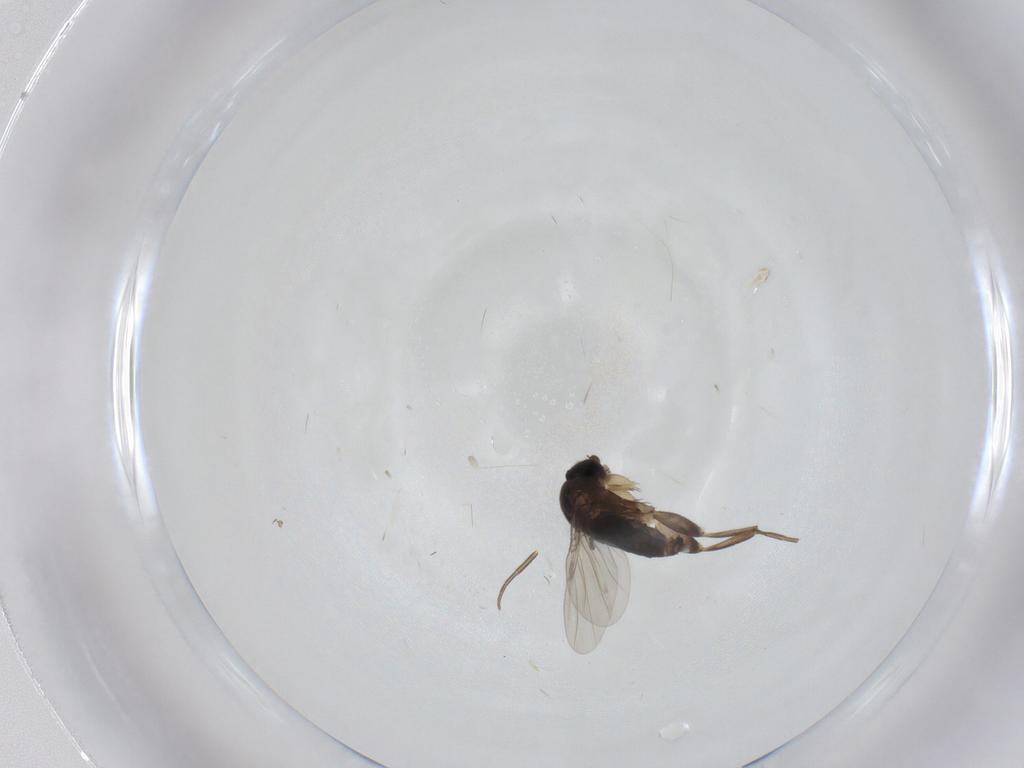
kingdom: Animalia
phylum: Arthropoda
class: Insecta
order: Diptera
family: Phoridae
